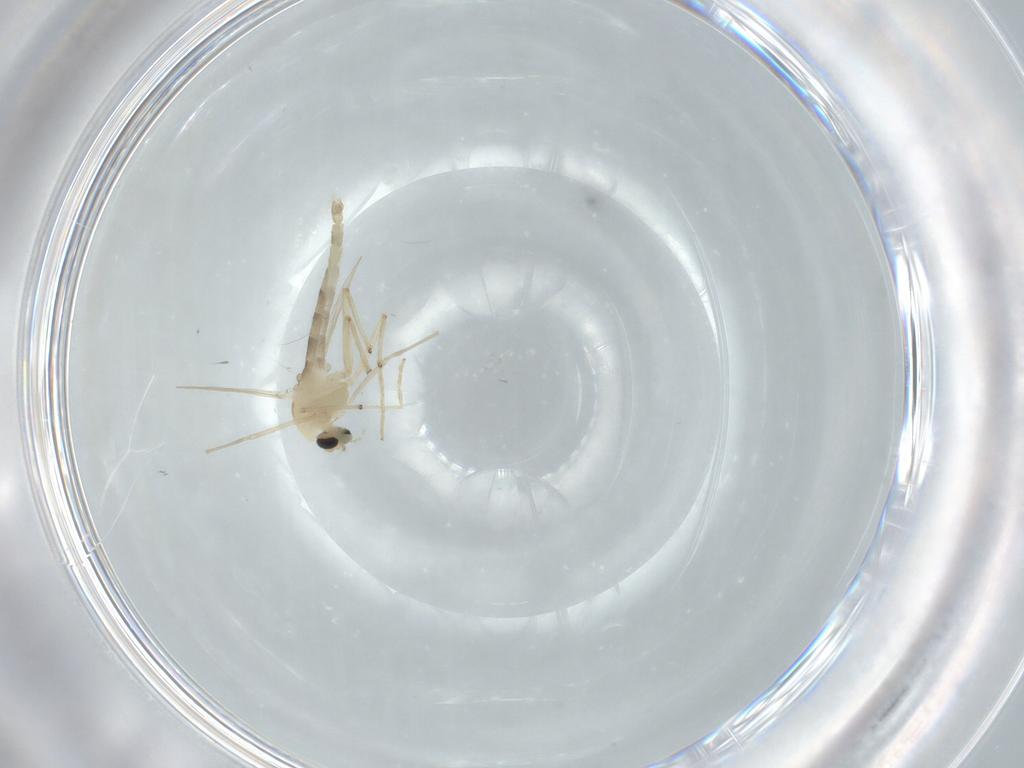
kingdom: Animalia
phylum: Arthropoda
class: Insecta
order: Diptera
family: Chironomidae
